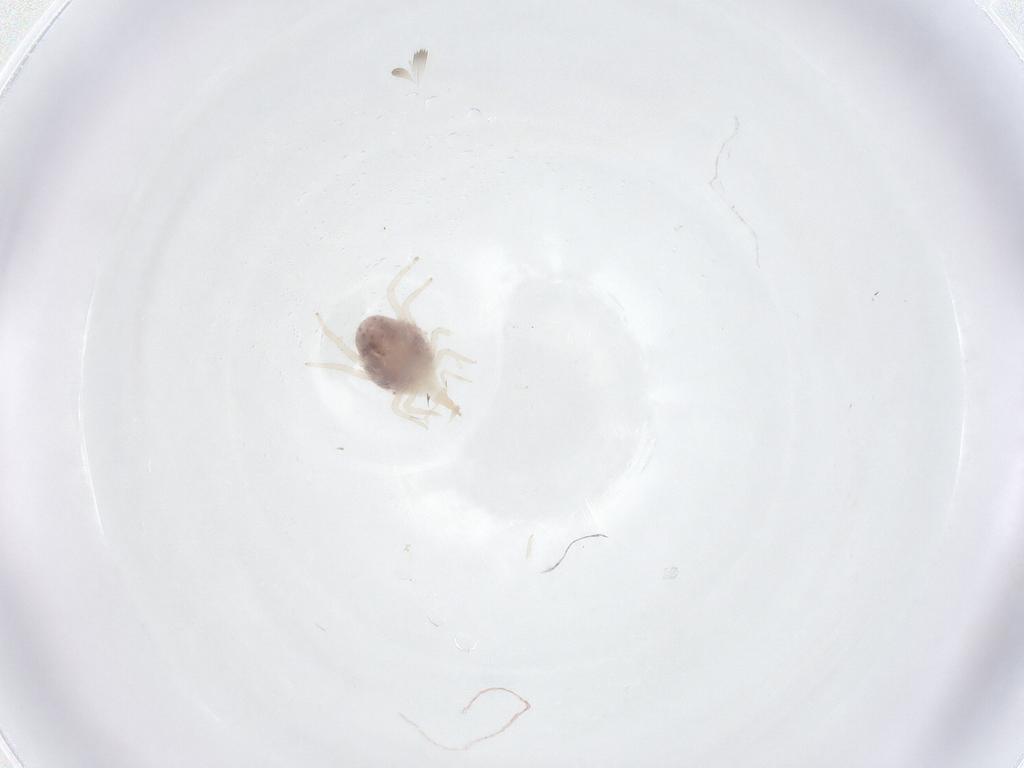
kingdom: Animalia
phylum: Arthropoda
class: Arachnida
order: Trombidiformes
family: Bdellidae
